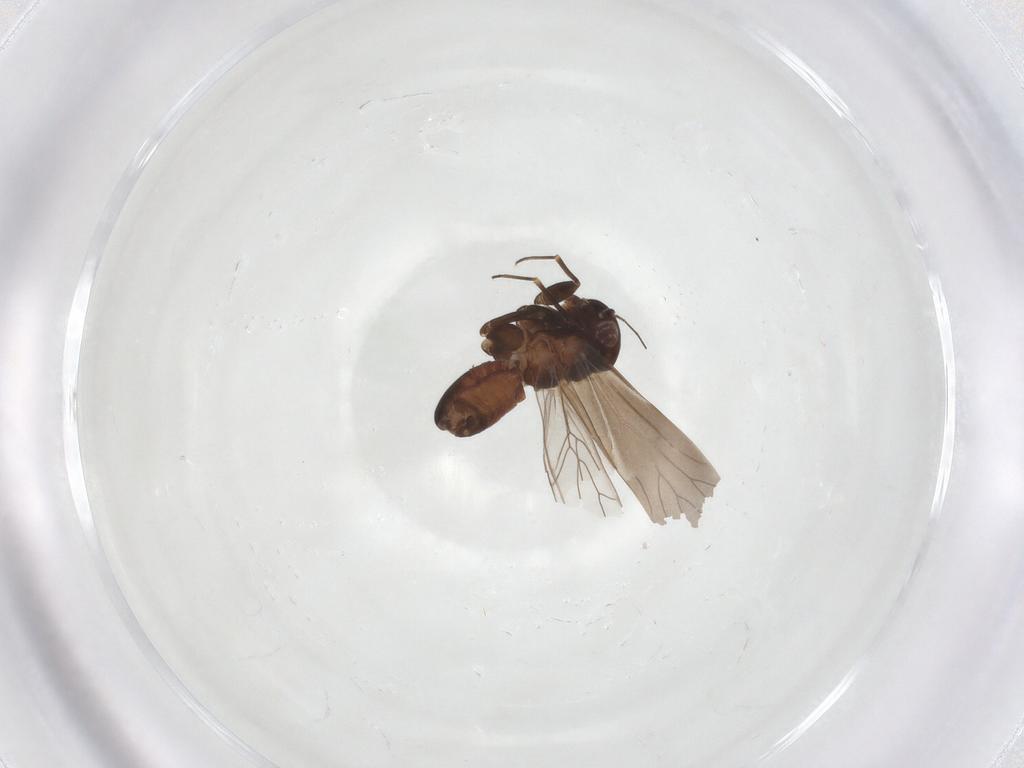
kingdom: Animalia
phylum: Arthropoda
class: Insecta
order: Psocodea
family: Amphientomidae
